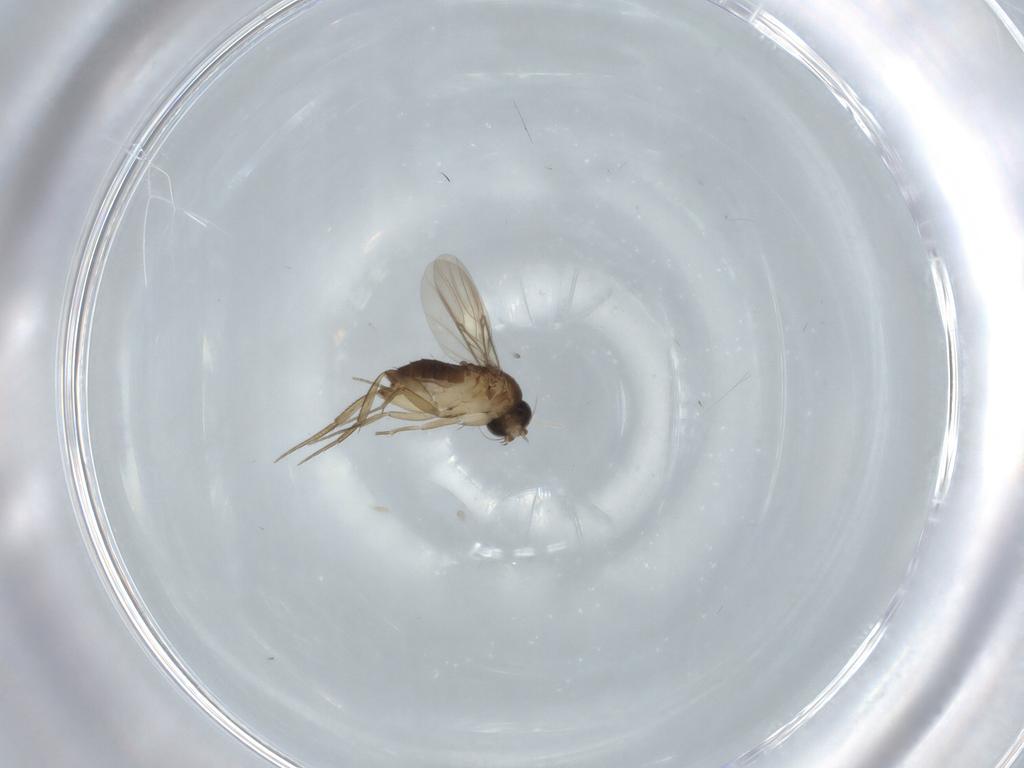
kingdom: Animalia
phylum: Arthropoda
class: Insecta
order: Diptera
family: Phoridae
